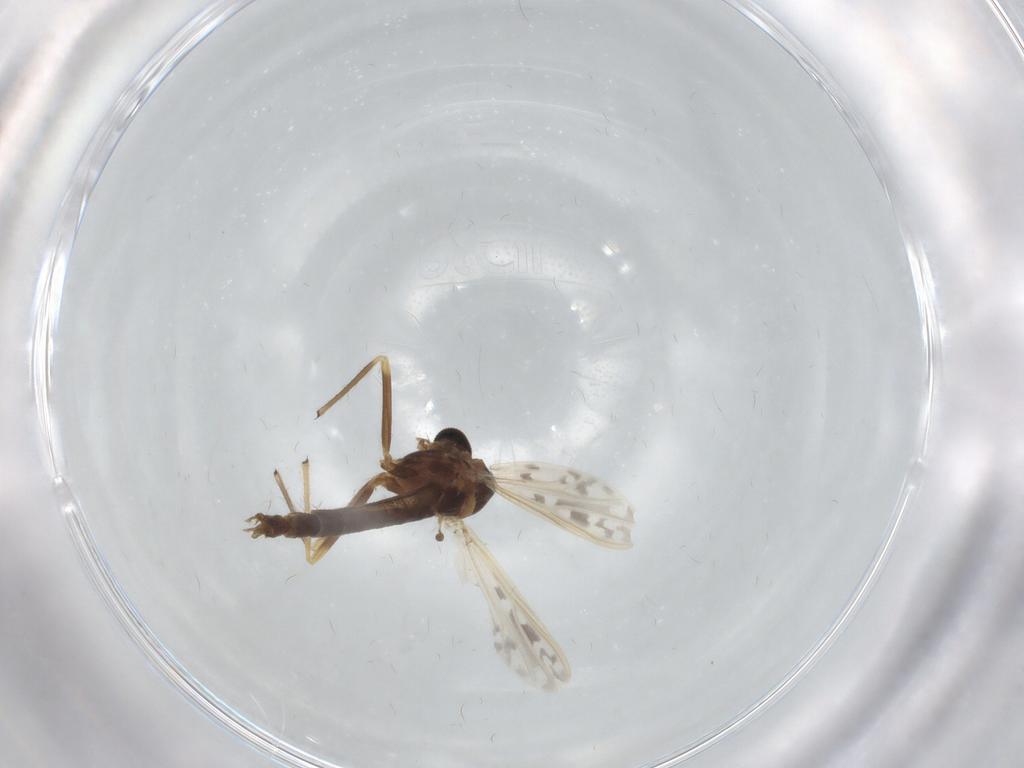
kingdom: Animalia
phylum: Arthropoda
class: Insecta
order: Diptera
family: Chironomidae
